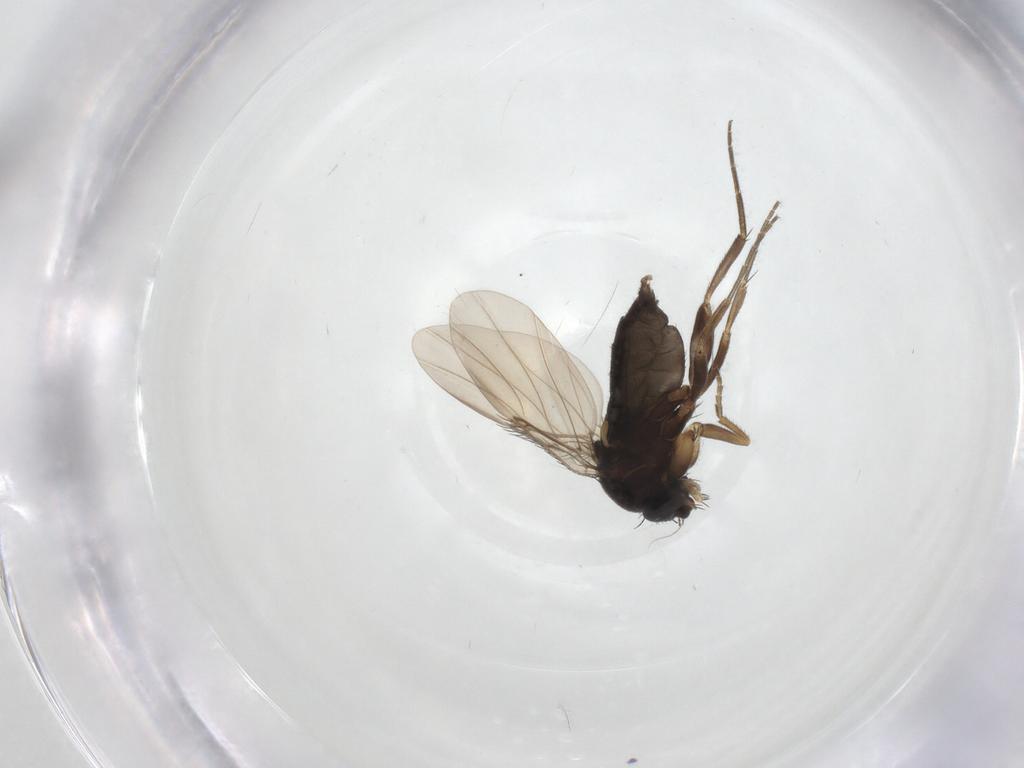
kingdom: Animalia
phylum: Arthropoda
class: Insecta
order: Diptera
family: Phoridae
